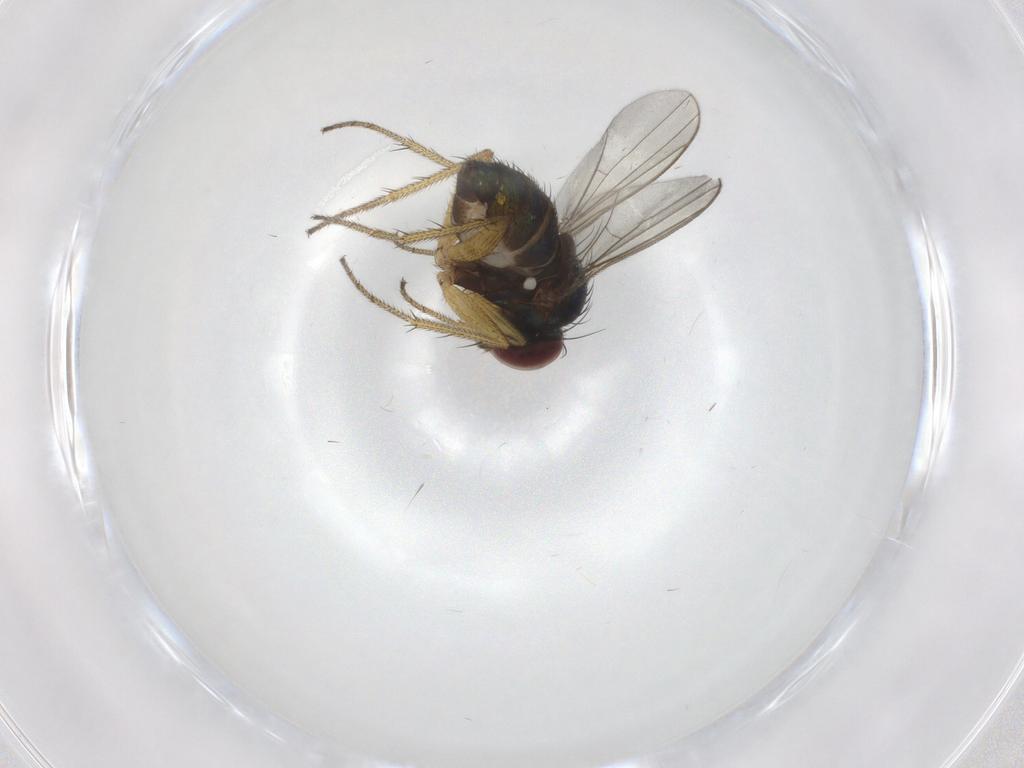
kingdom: Animalia
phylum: Arthropoda
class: Insecta
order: Diptera
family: Dolichopodidae
